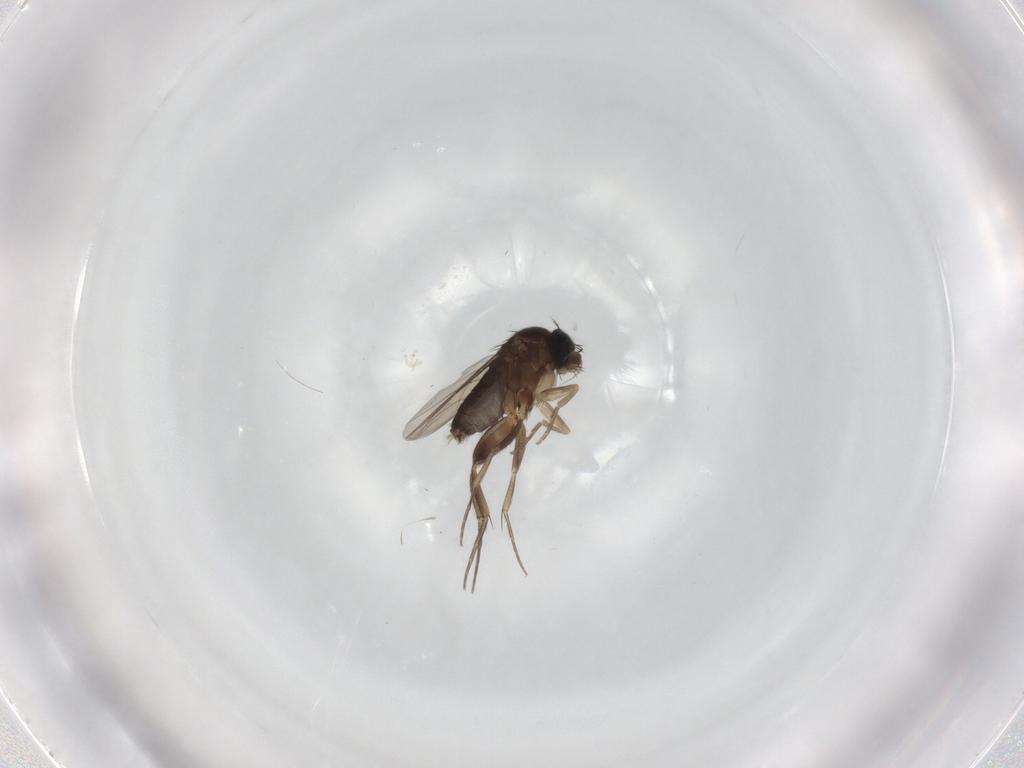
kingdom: Animalia
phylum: Arthropoda
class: Insecta
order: Diptera
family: Phoridae
